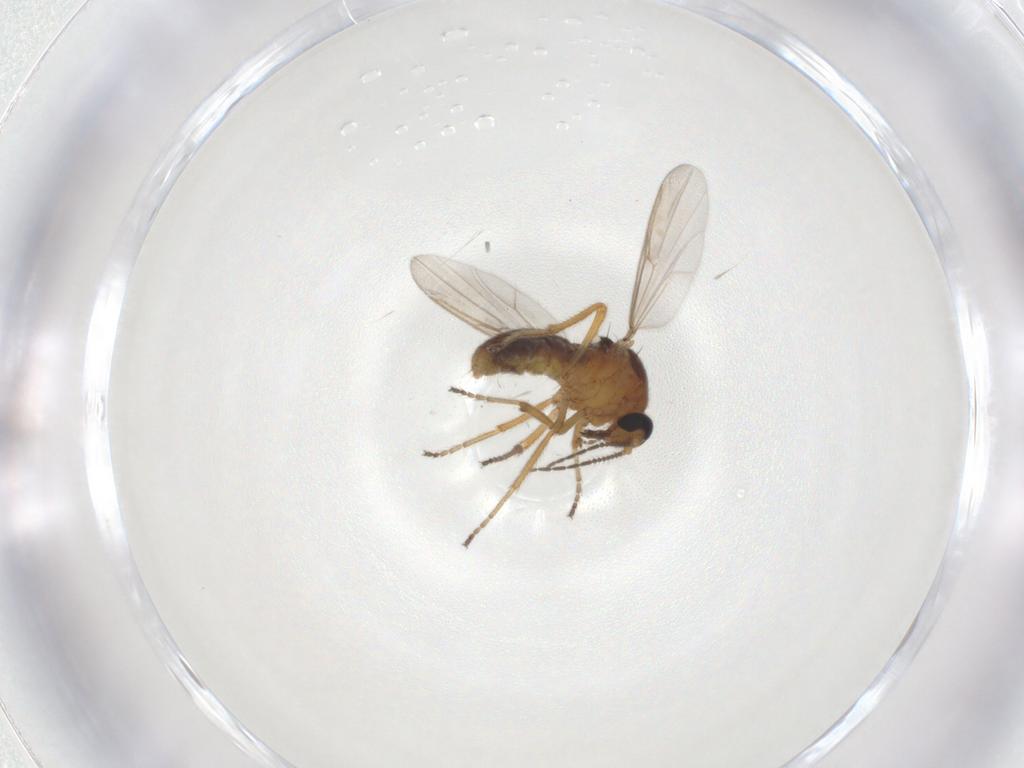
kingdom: Animalia
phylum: Arthropoda
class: Insecta
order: Diptera
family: Ceratopogonidae
